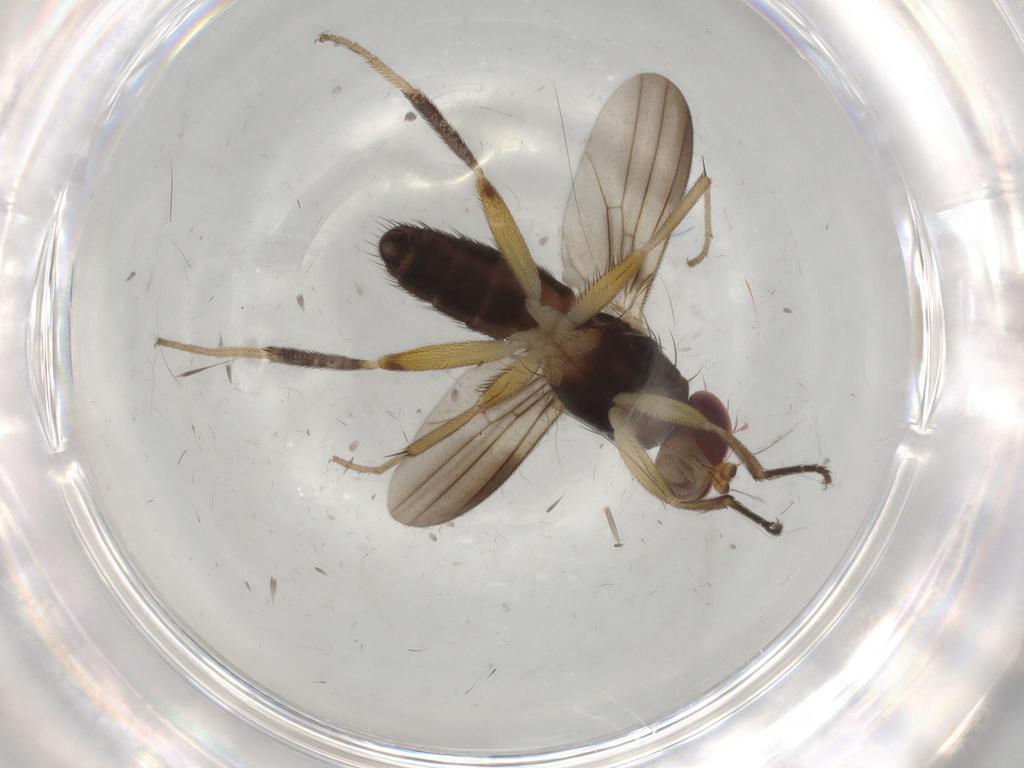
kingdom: Animalia
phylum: Arthropoda
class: Insecta
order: Diptera
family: Clusiidae
